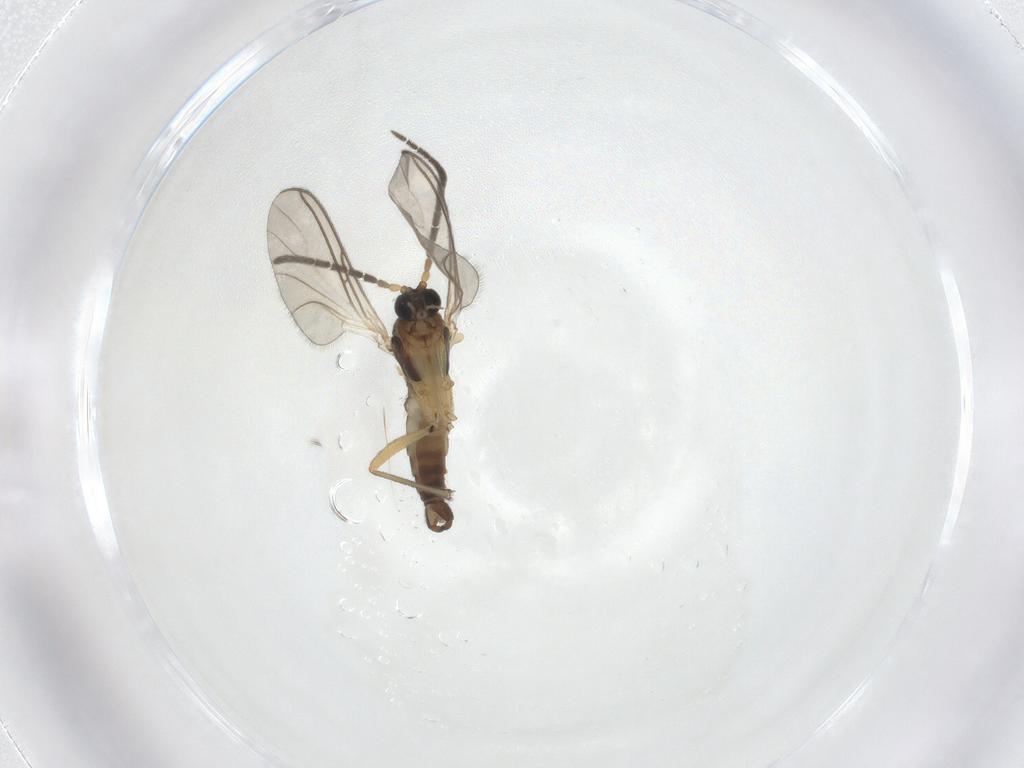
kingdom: Animalia
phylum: Arthropoda
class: Insecta
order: Diptera
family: Sciaridae
